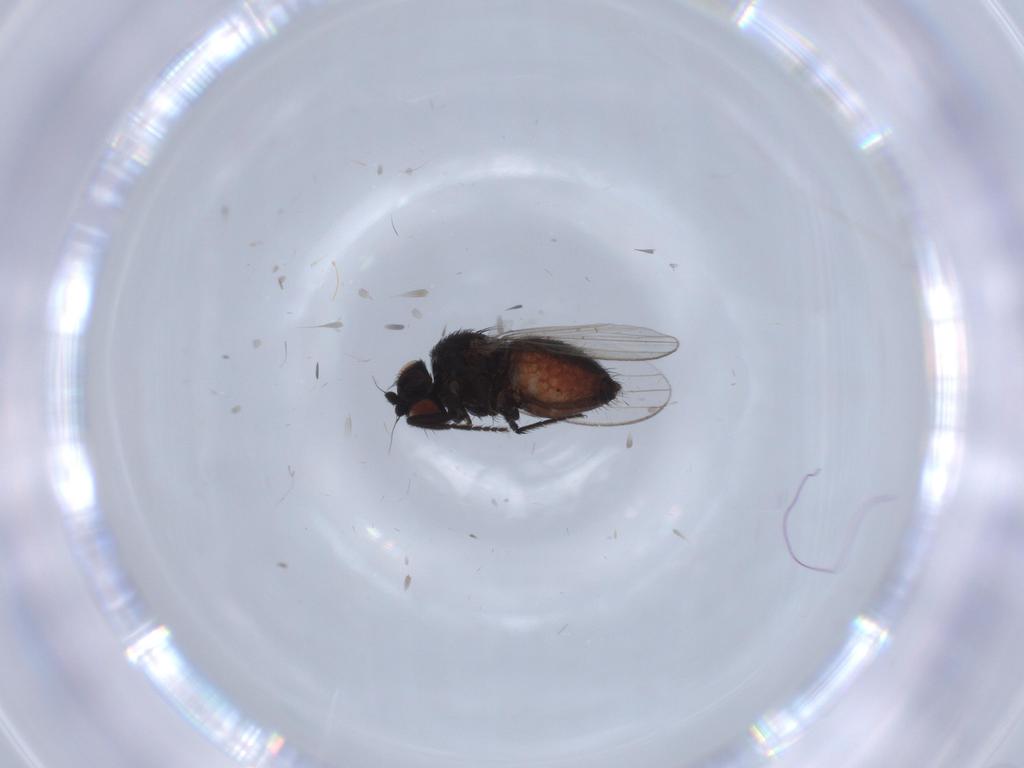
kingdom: Animalia
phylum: Arthropoda
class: Insecta
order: Diptera
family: Milichiidae
